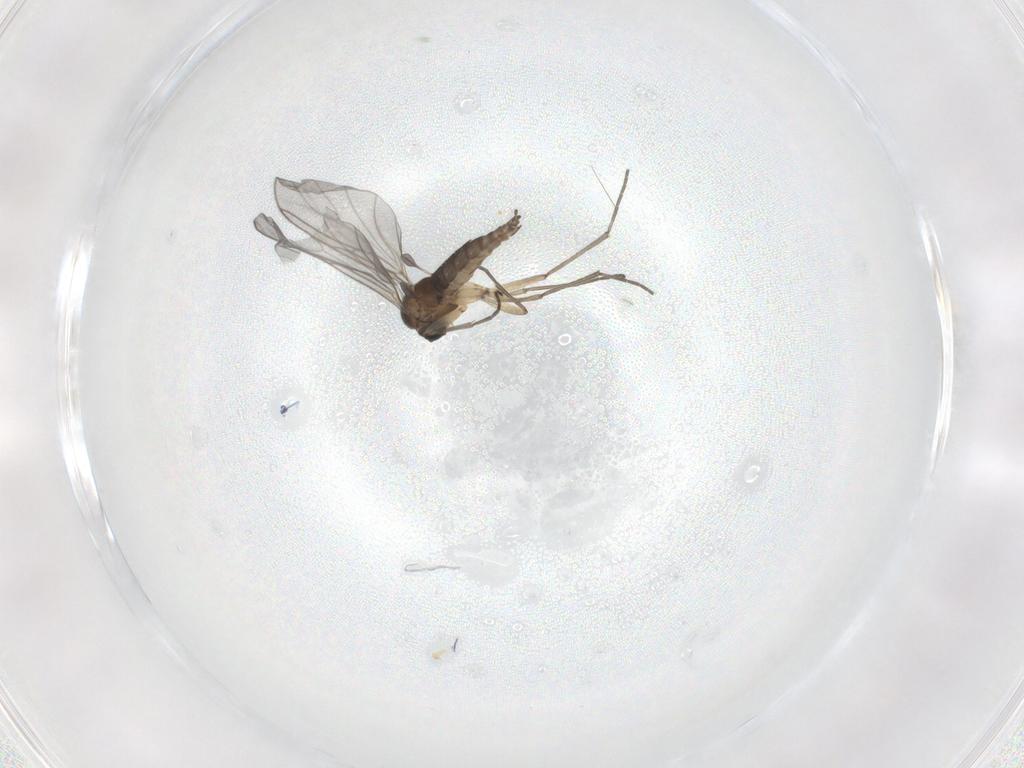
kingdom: Animalia
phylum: Arthropoda
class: Insecta
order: Diptera
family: Sciaridae
